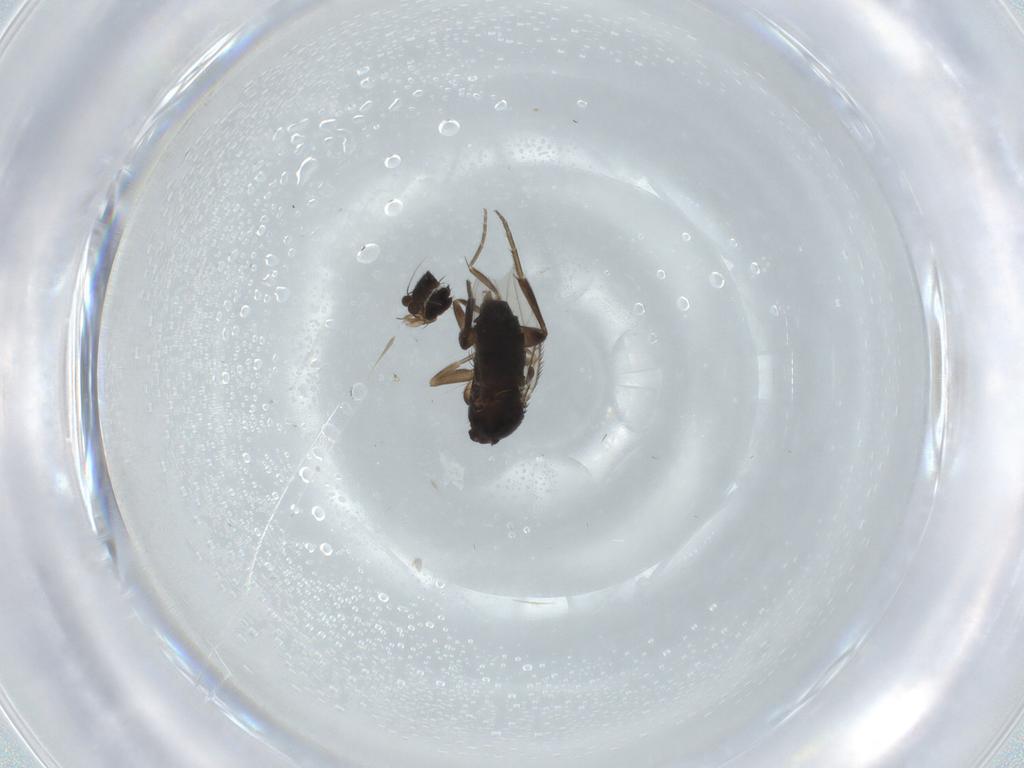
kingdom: Animalia
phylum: Arthropoda
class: Insecta
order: Diptera
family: Phoridae
